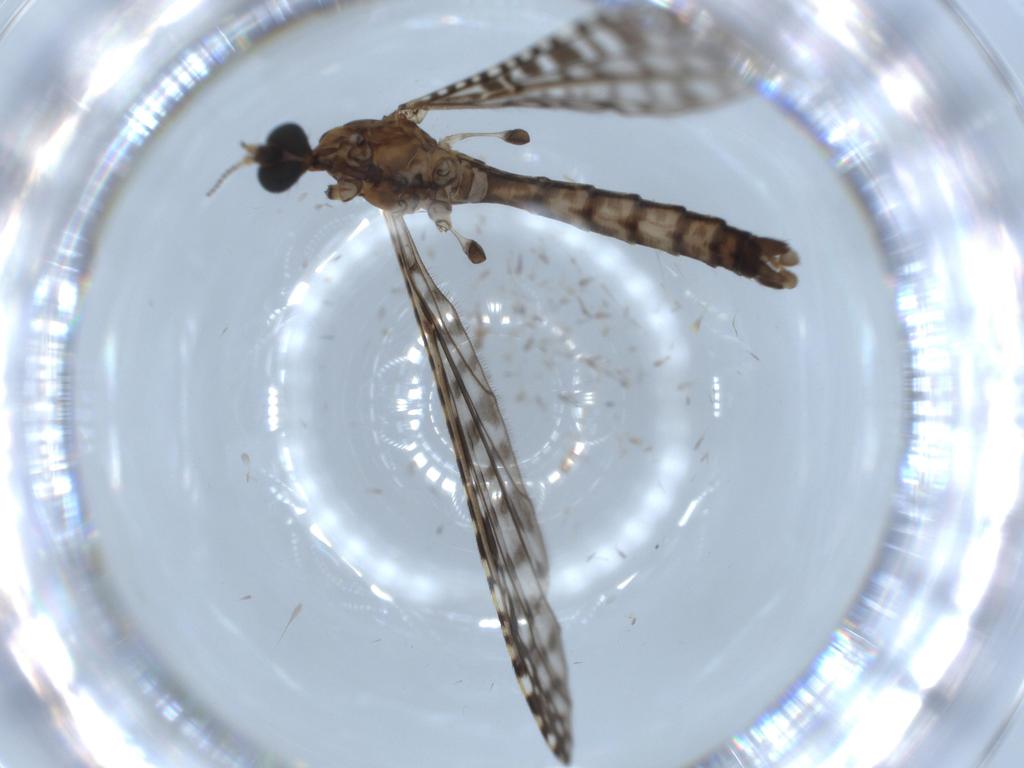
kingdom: Animalia
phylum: Arthropoda
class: Insecta
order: Diptera
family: Limoniidae
